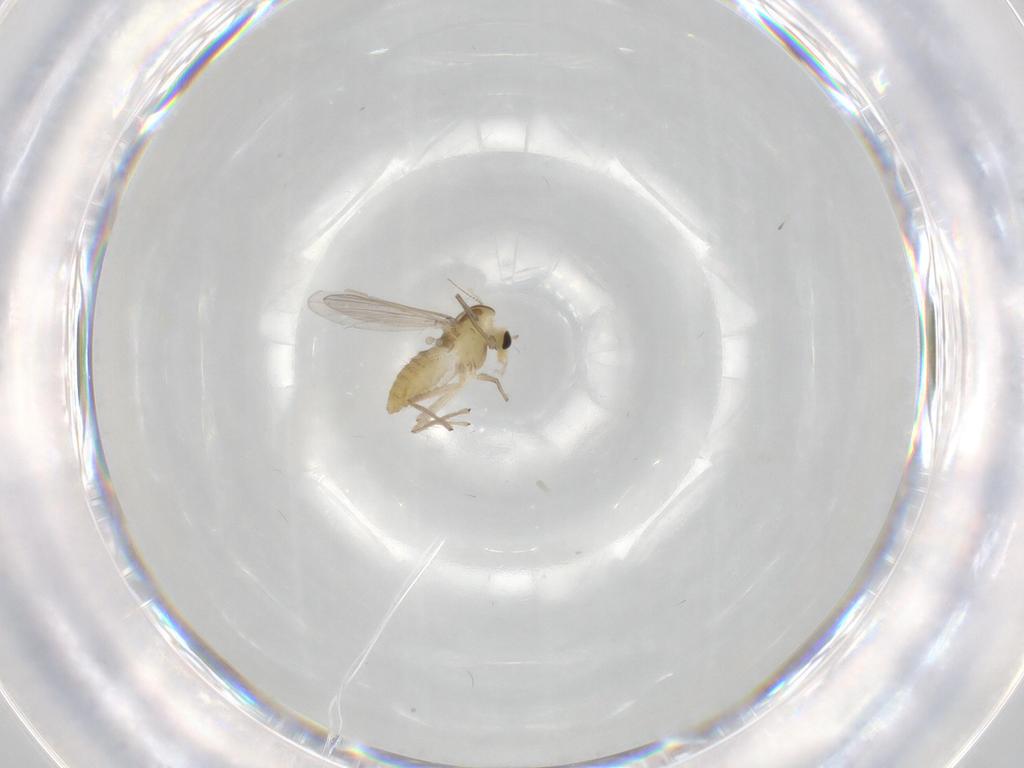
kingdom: Animalia
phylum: Arthropoda
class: Insecta
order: Diptera
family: Chironomidae
